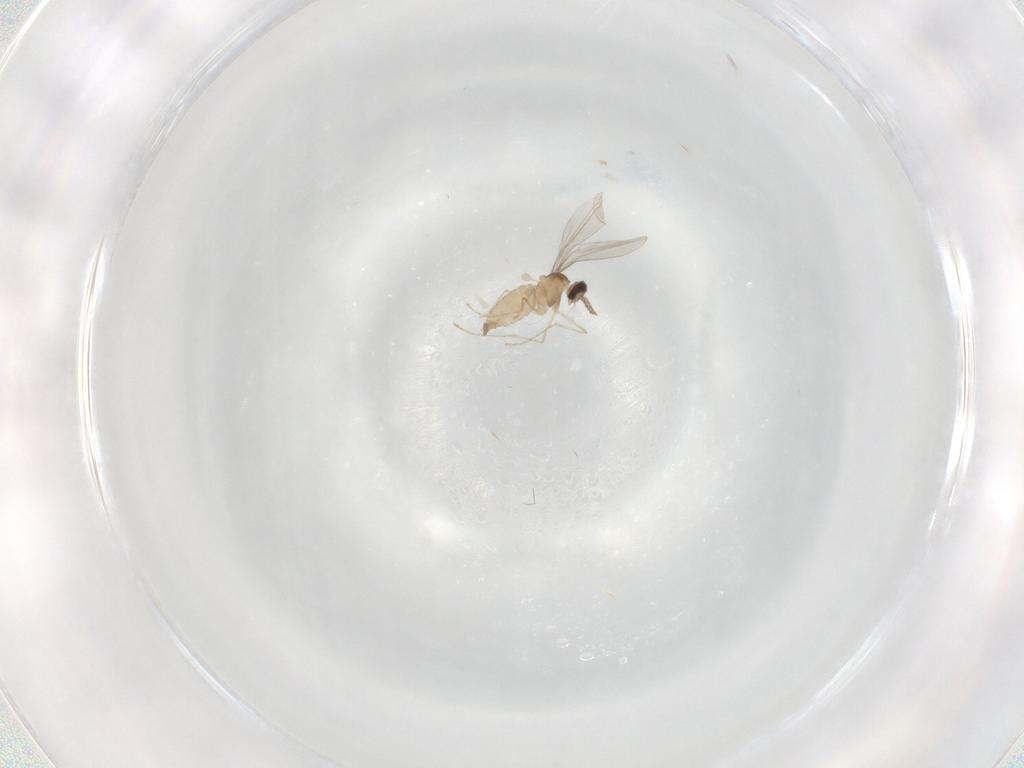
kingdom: Animalia
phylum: Arthropoda
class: Insecta
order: Diptera
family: Cecidomyiidae
